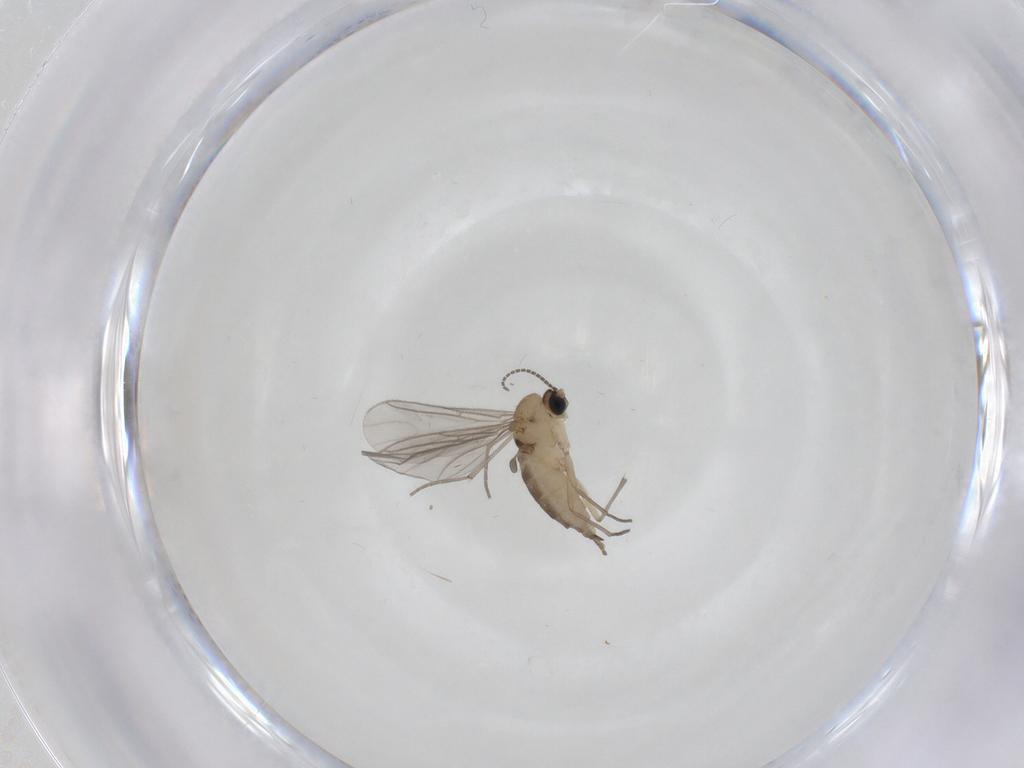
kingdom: Animalia
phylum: Arthropoda
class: Insecta
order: Diptera
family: Sciaridae
